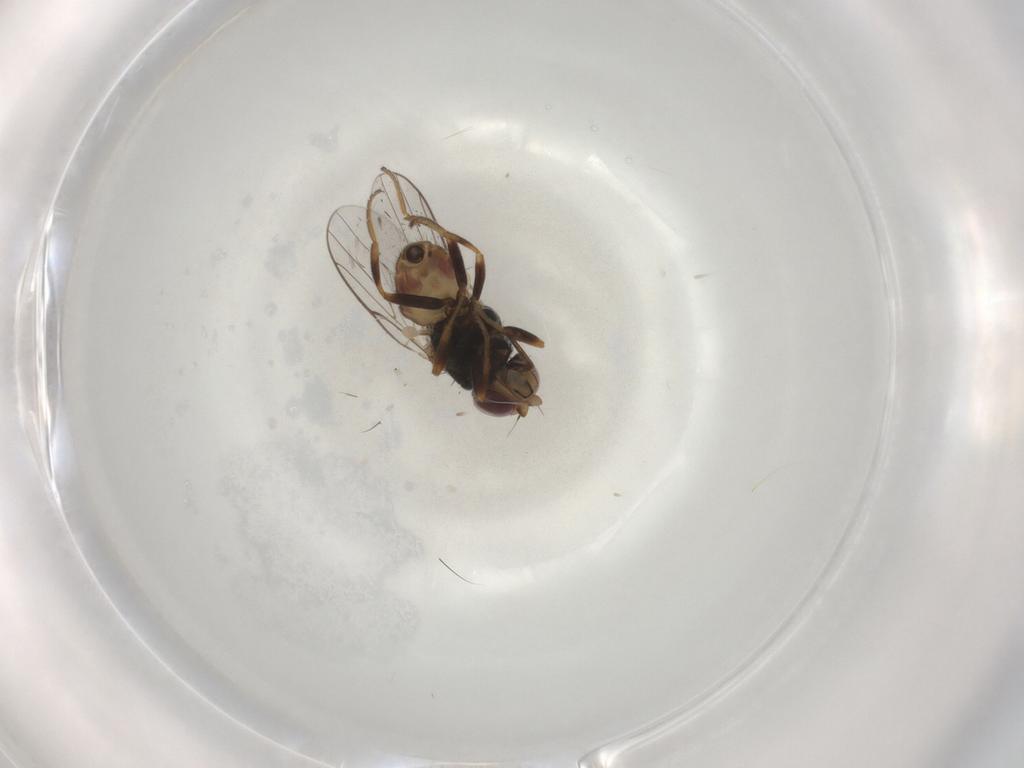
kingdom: Animalia
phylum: Arthropoda
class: Insecta
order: Diptera
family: Chloropidae
